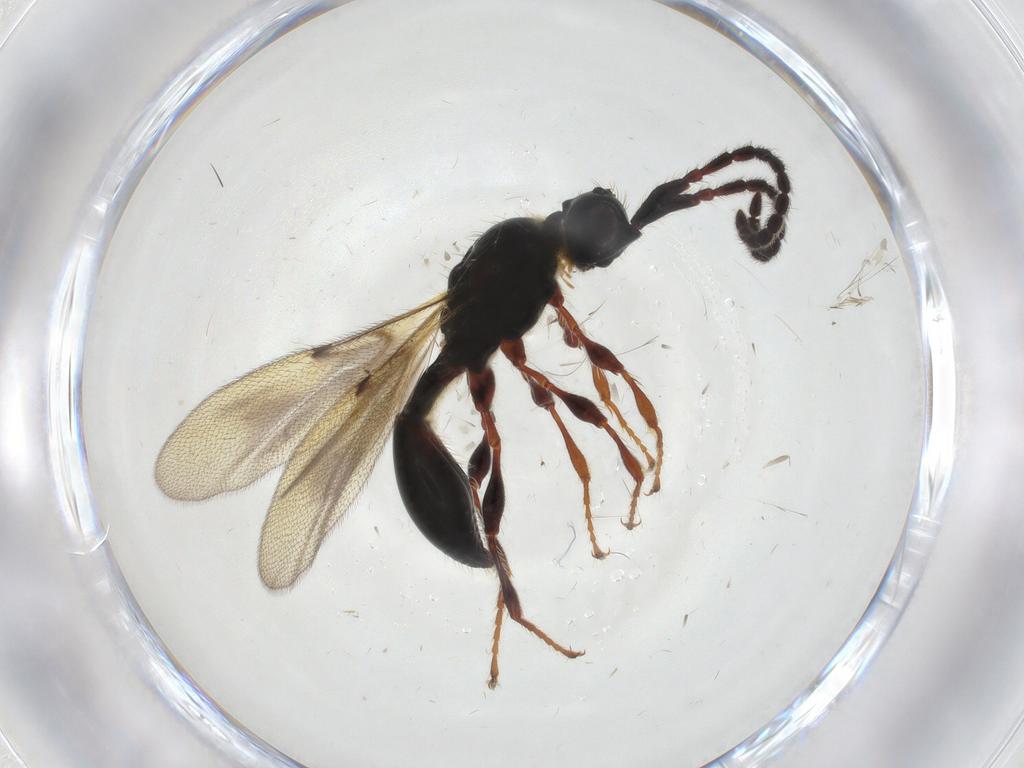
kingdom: Animalia
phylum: Arthropoda
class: Insecta
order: Hymenoptera
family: Diapriidae
